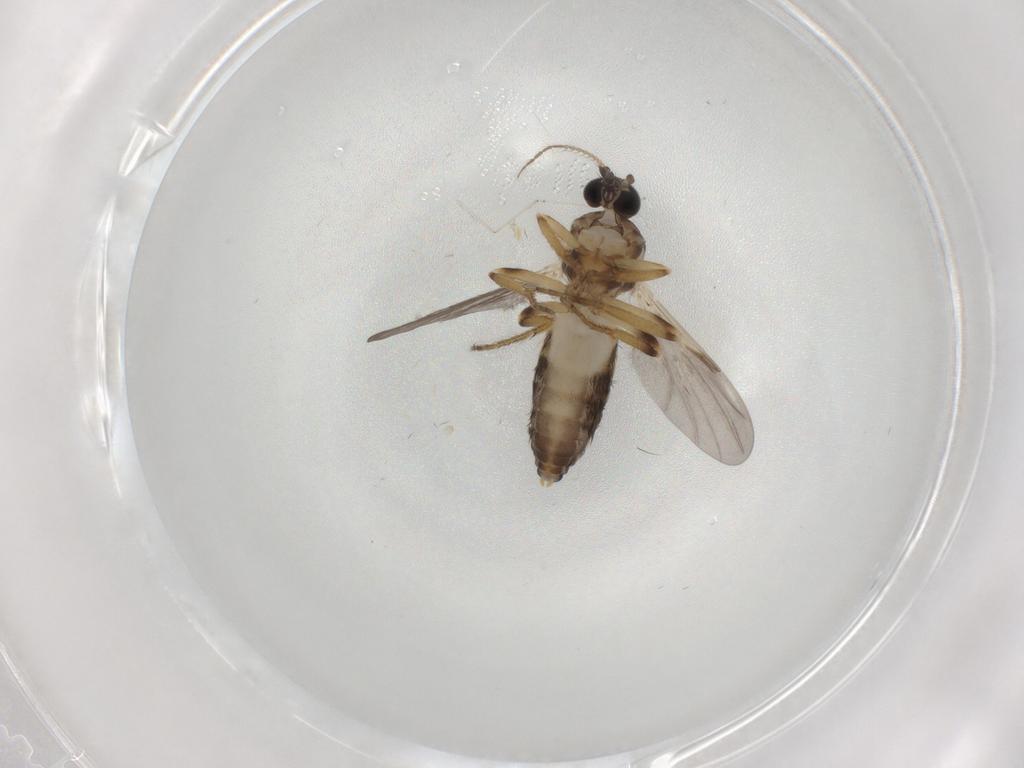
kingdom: Animalia
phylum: Arthropoda
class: Insecta
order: Diptera
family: Ceratopogonidae
